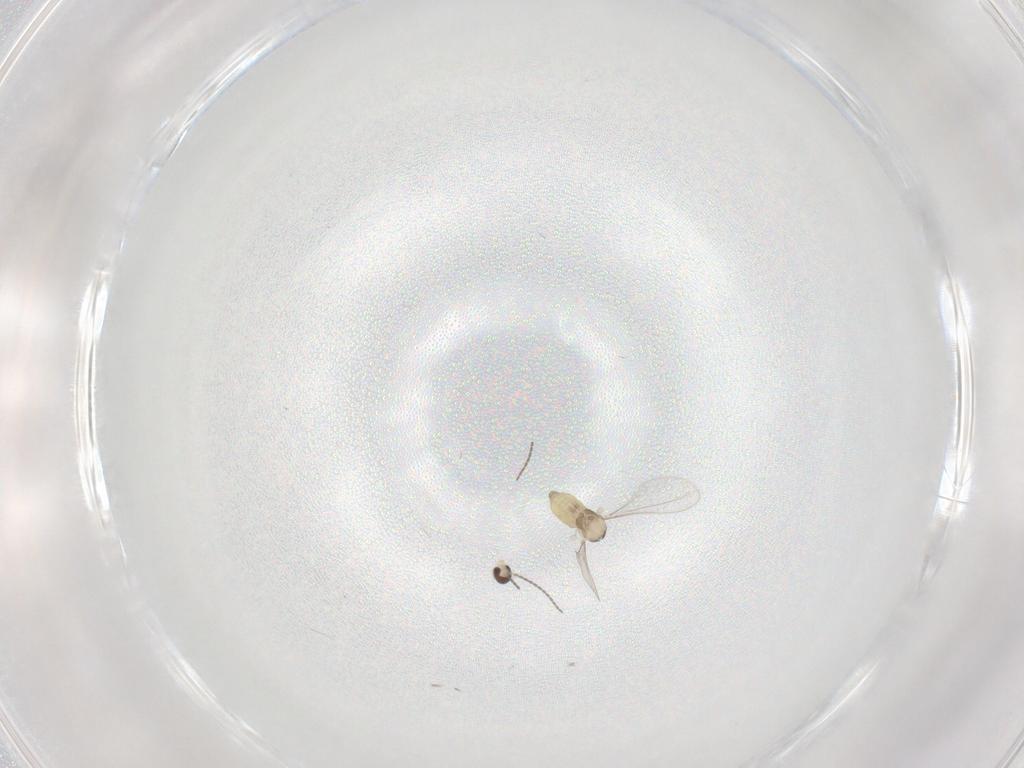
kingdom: Animalia
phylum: Arthropoda
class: Insecta
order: Diptera
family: Cecidomyiidae
